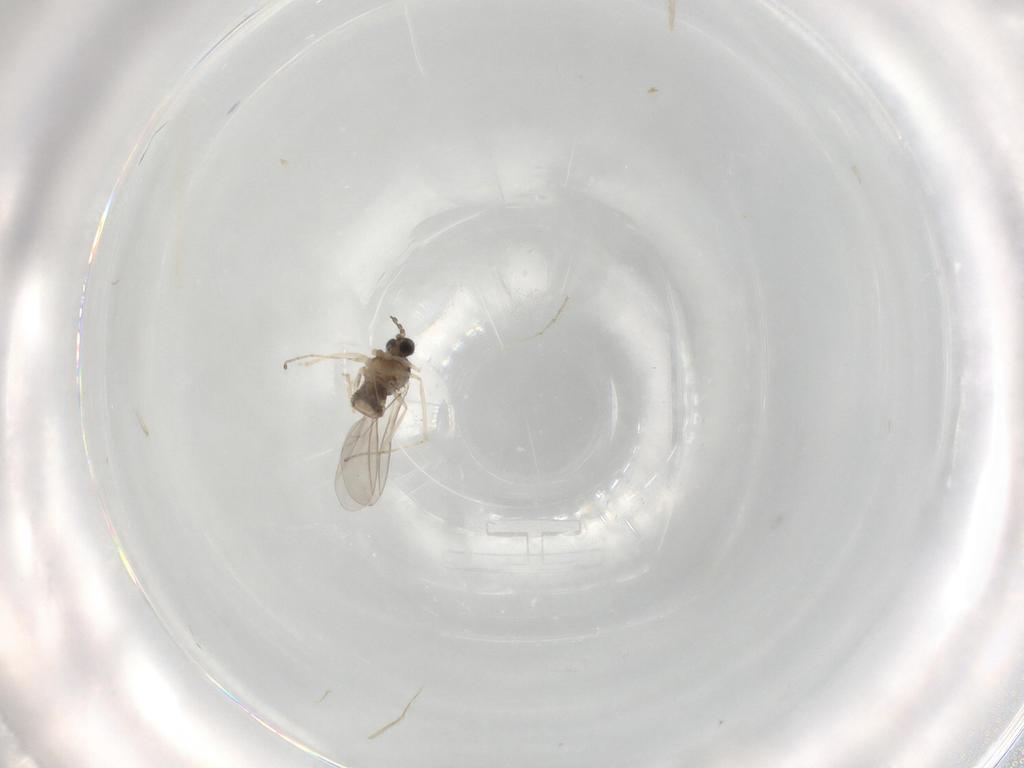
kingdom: Animalia
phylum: Arthropoda
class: Insecta
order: Diptera
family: Cecidomyiidae
